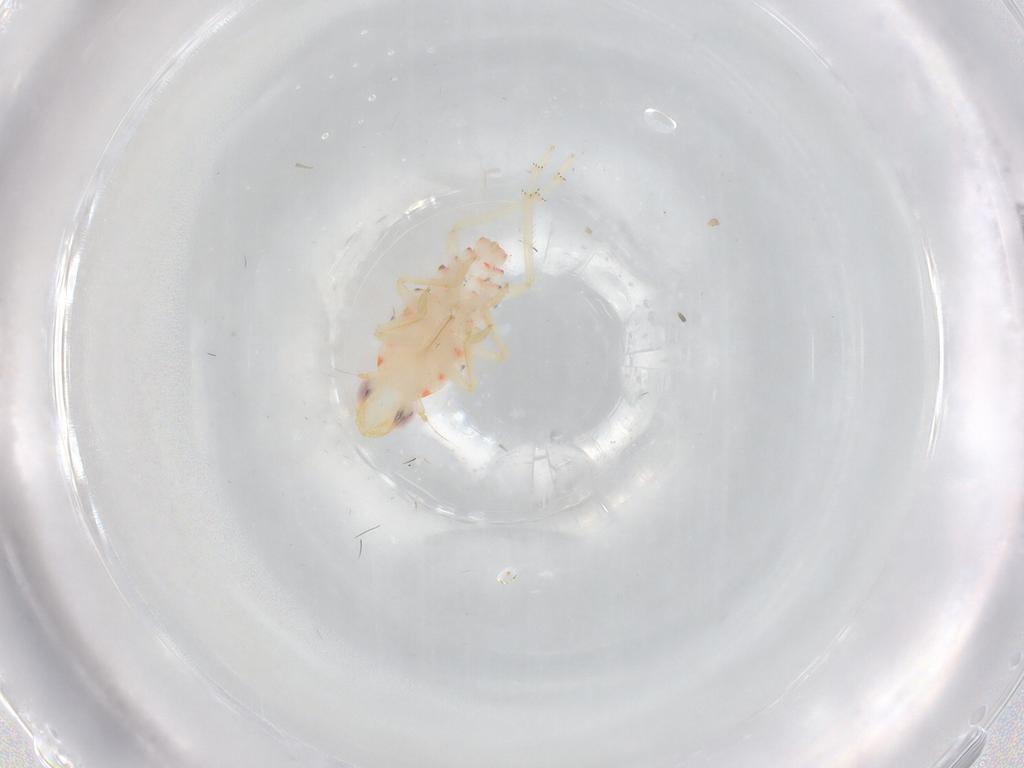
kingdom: Animalia
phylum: Arthropoda
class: Insecta
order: Hemiptera
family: Tropiduchidae
